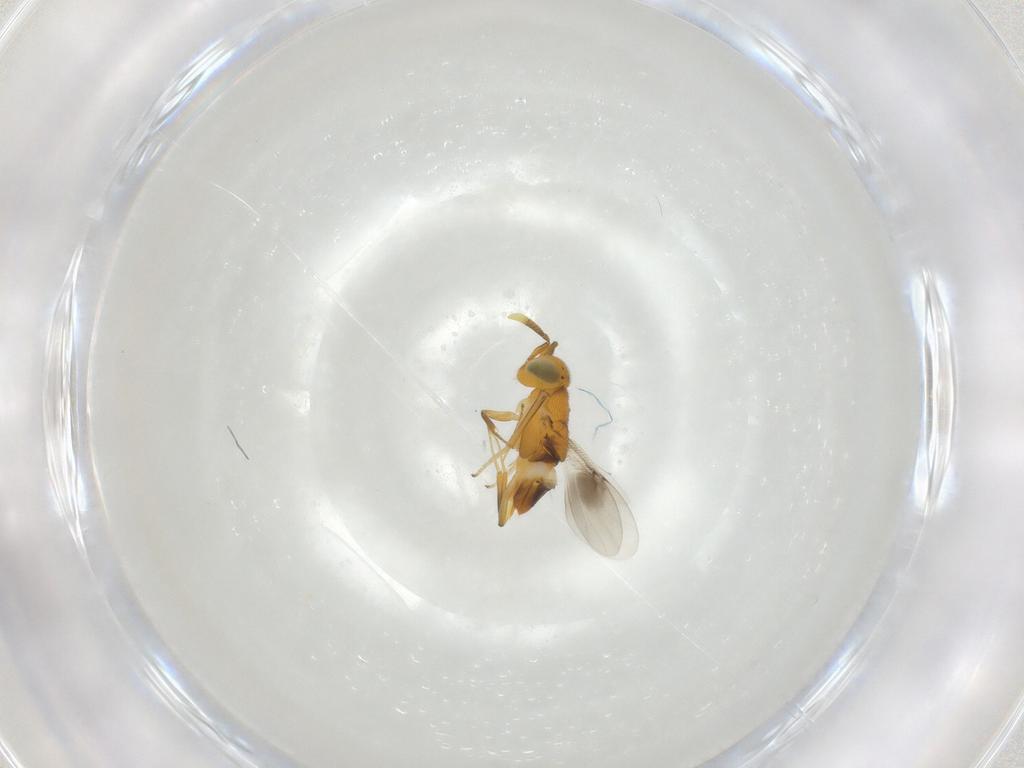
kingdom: Animalia
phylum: Arthropoda
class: Insecta
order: Hymenoptera
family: Encyrtidae
